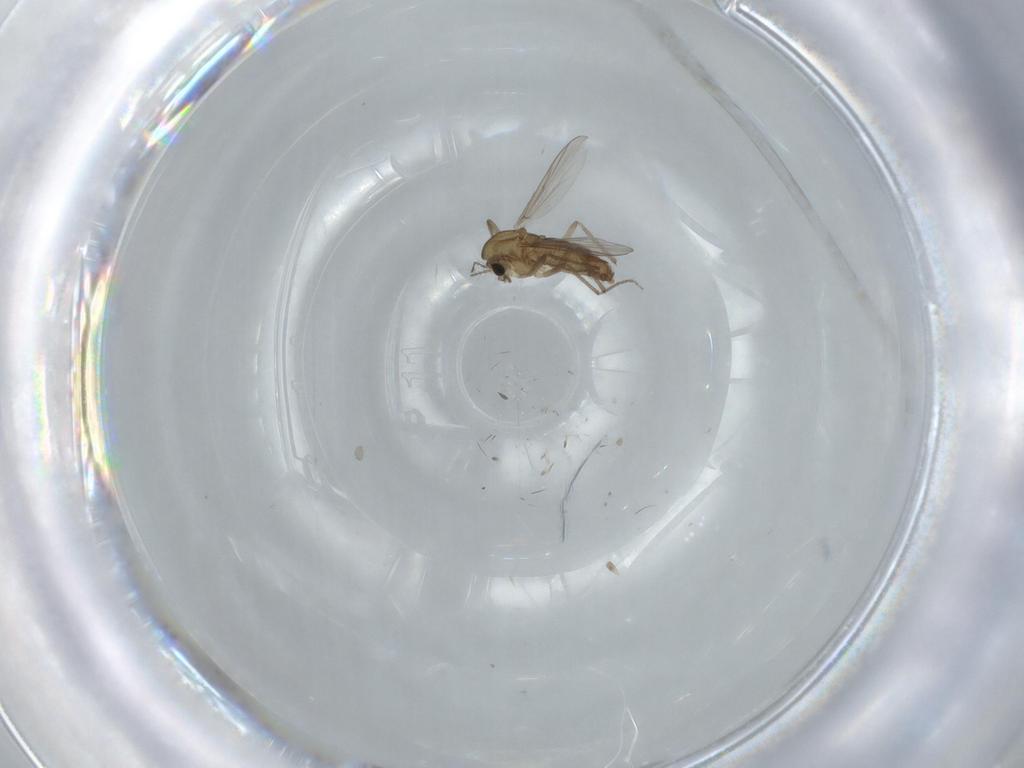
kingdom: Animalia
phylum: Arthropoda
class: Insecta
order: Diptera
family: Chironomidae
